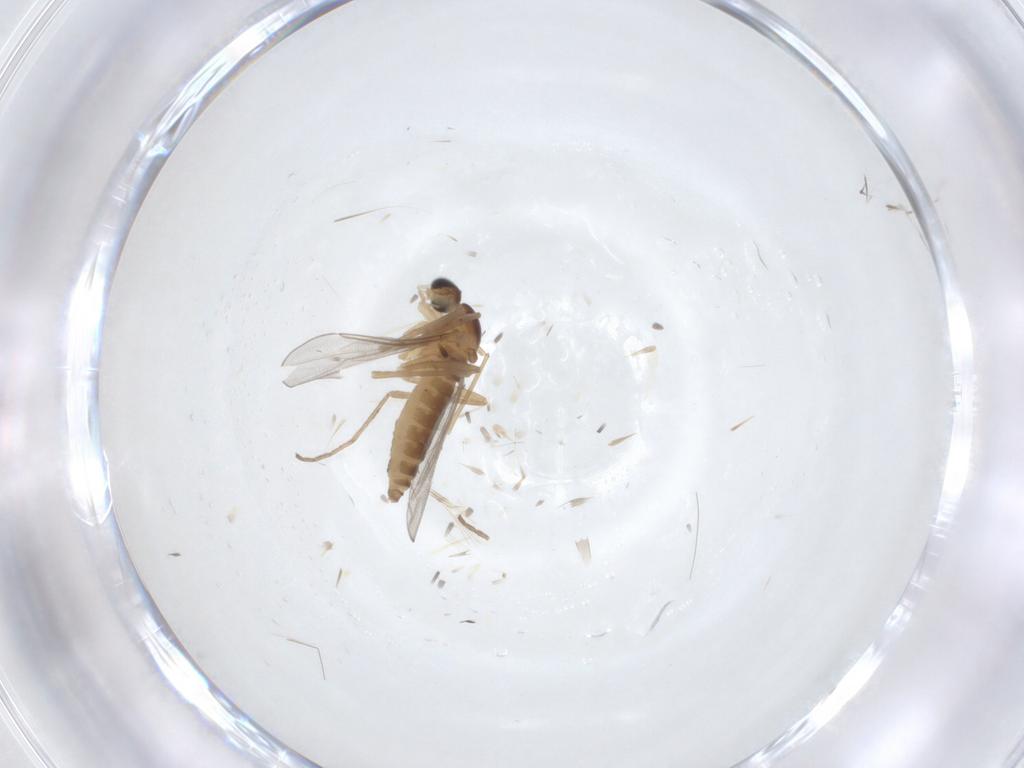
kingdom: Animalia
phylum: Arthropoda
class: Insecta
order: Diptera
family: Cecidomyiidae
